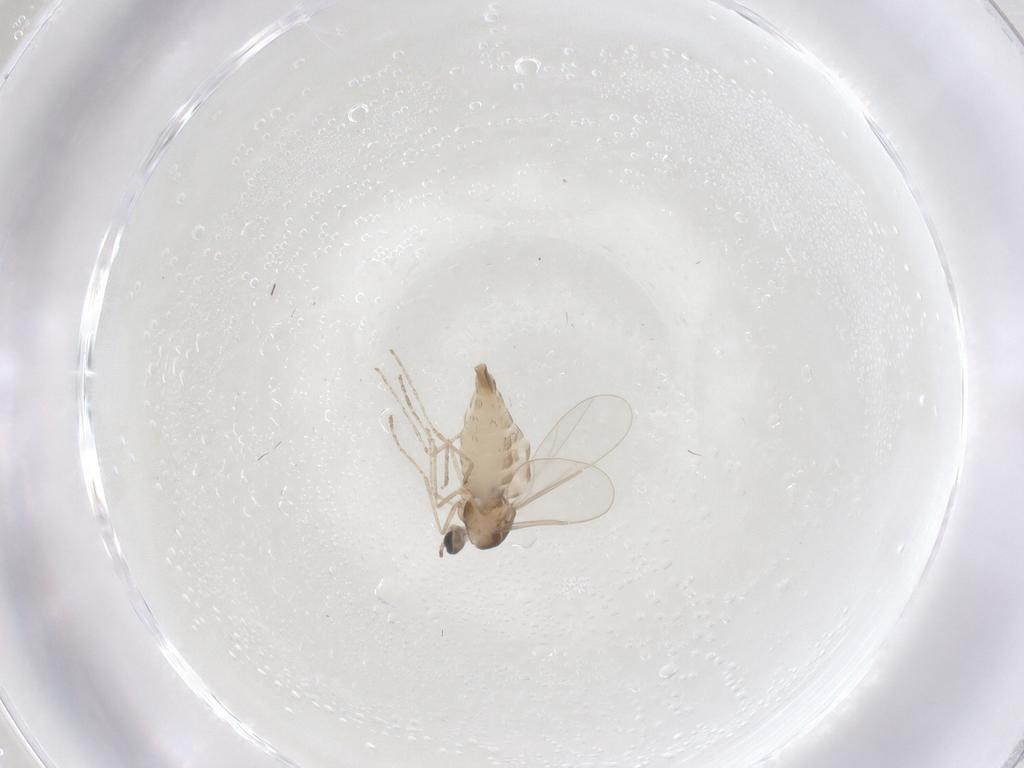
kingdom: Animalia
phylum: Arthropoda
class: Insecta
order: Diptera
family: Cecidomyiidae
